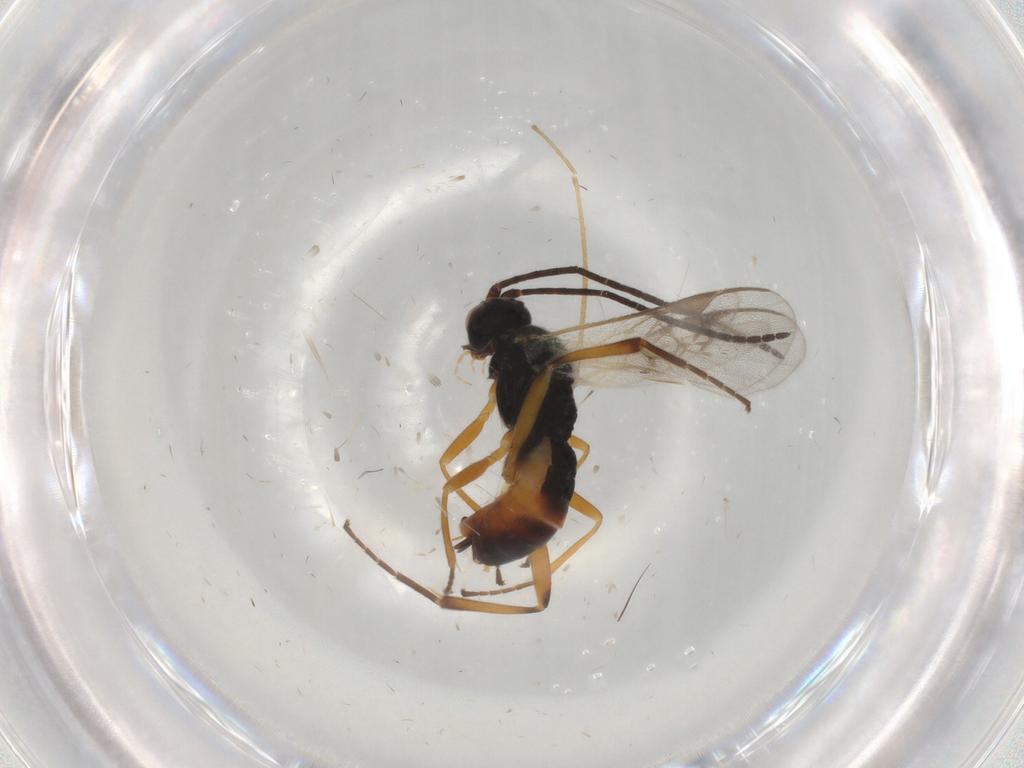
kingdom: Animalia
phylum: Arthropoda
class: Insecta
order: Hymenoptera
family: Braconidae
